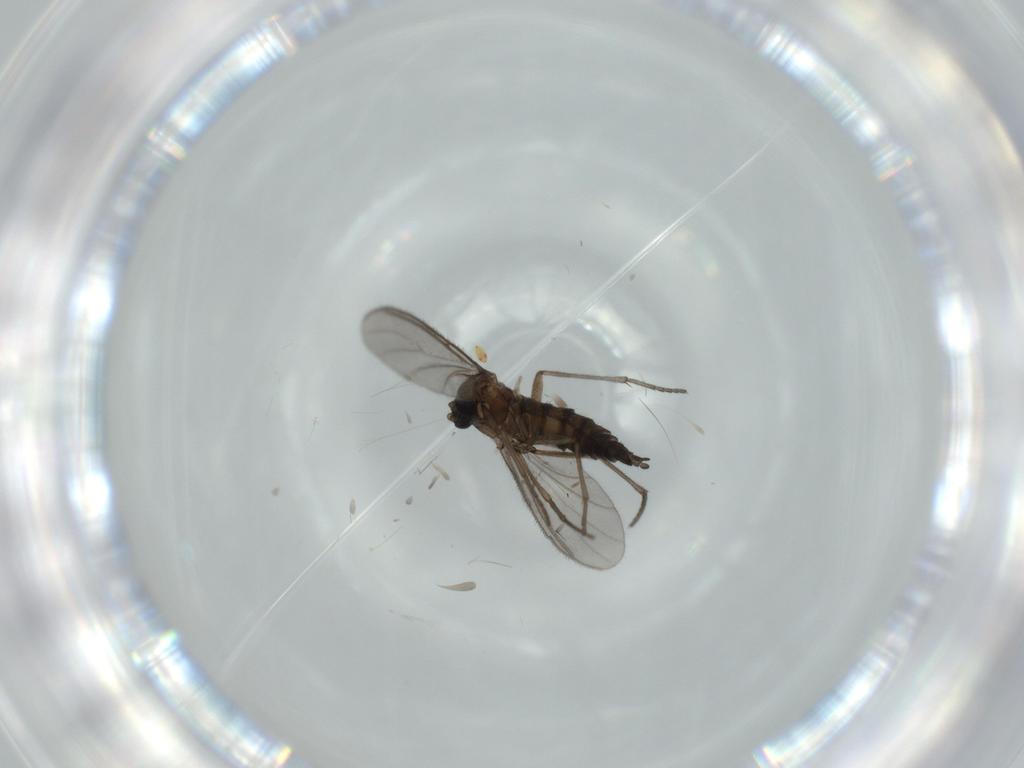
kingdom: Animalia
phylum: Arthropoda
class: Insecta
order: Diptera
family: Sciaridae
